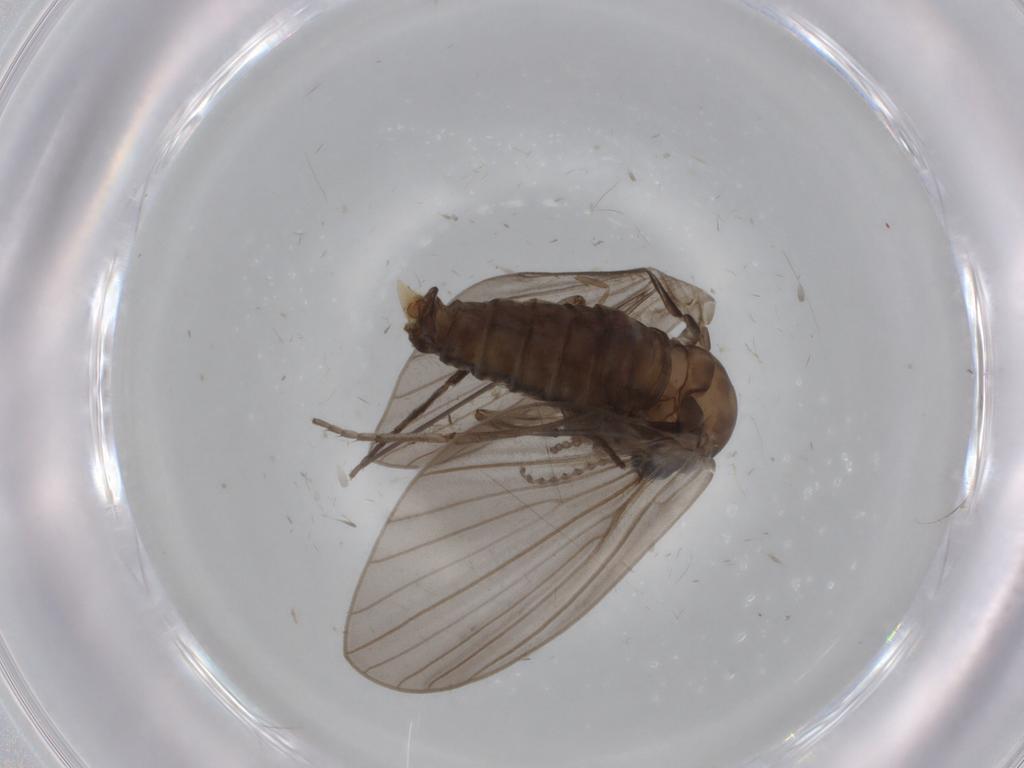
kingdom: Animalia
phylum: Arthropoda
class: Insecta
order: Diptera
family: Psychodidae
